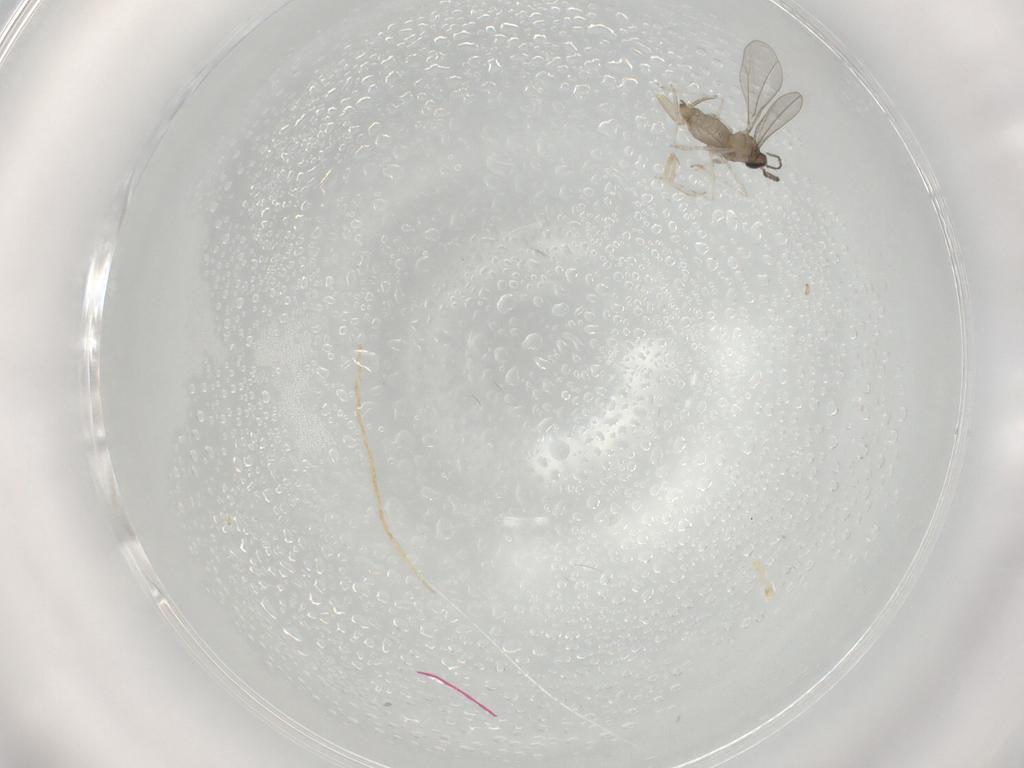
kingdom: Animalia
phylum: Arthropoda
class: Insecta
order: Diptera
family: Cecidomyiidae
